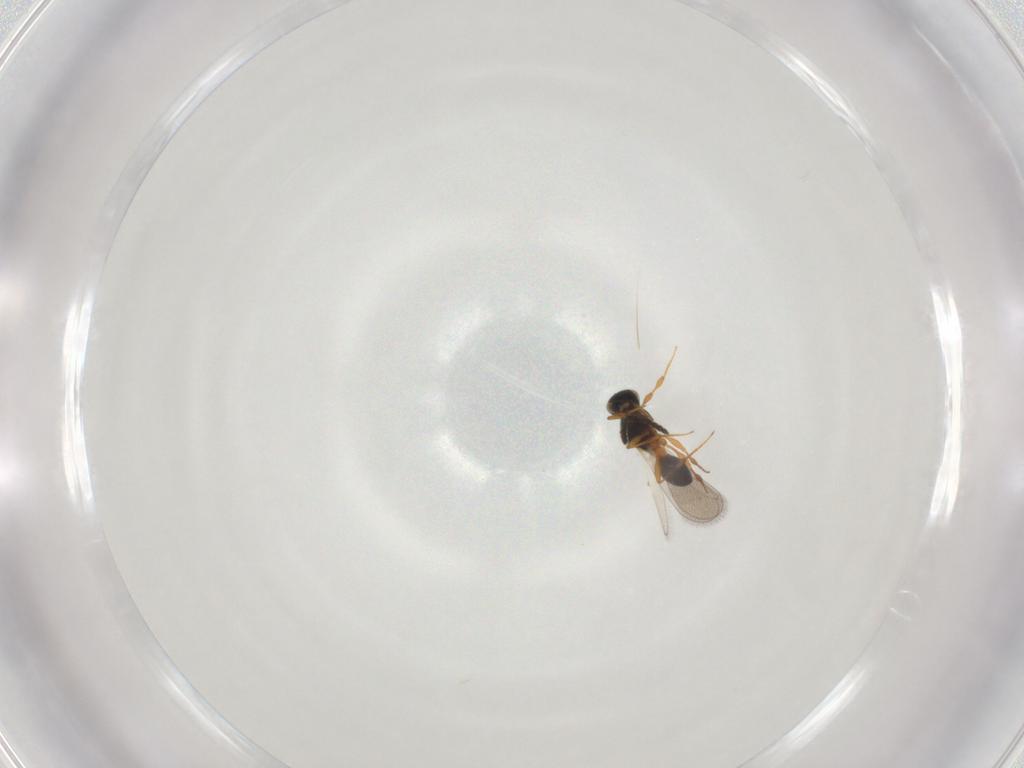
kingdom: Animalia
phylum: Arthropoda
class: Insecta
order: Hymenoptera
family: Platygastridae
